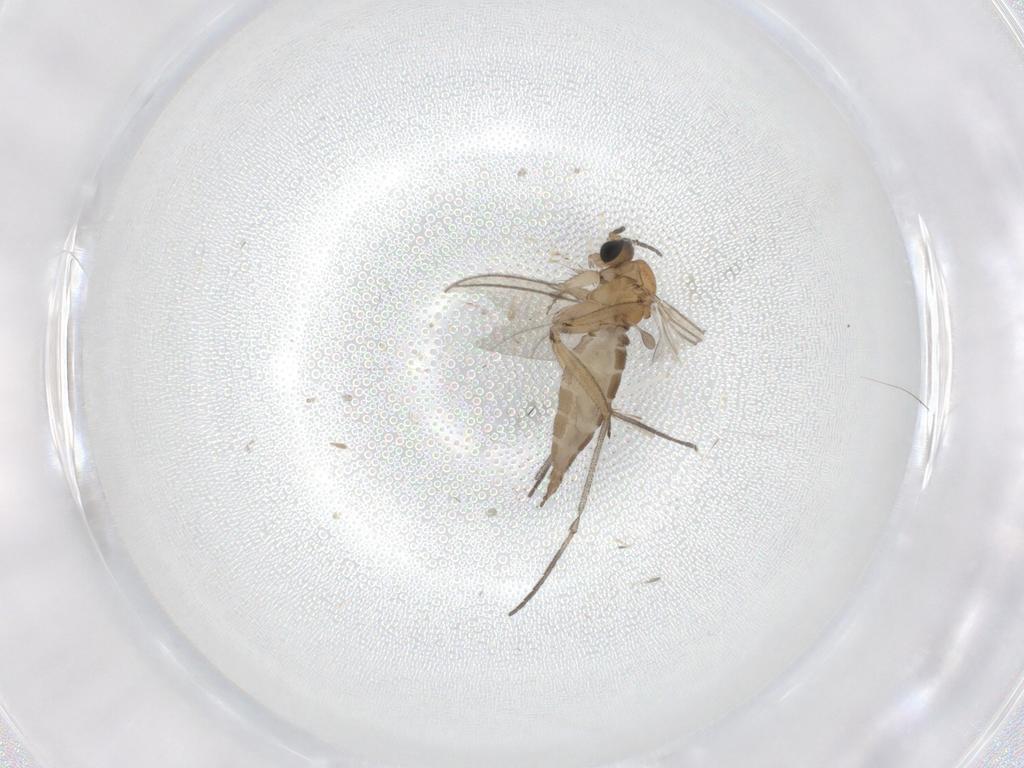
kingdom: Animalia
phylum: Arthropoda
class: Insecta
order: Diptera
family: Sciaridae
